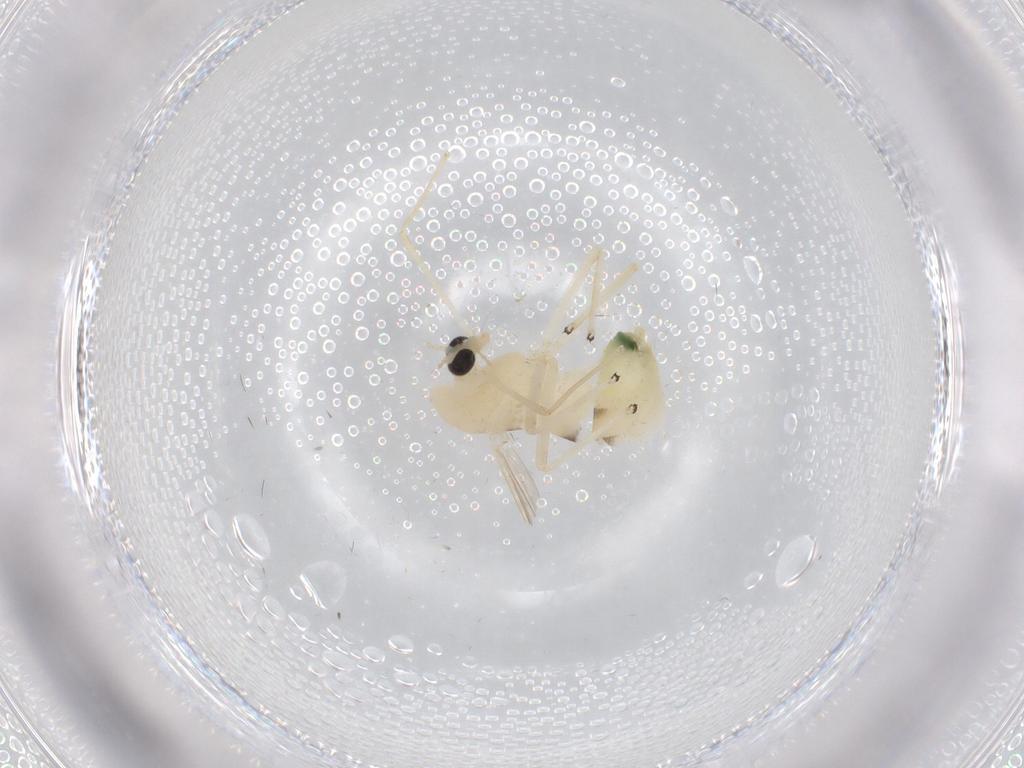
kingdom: Animalia
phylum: Arthropoda
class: Insecta
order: Diptera
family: Chironomidae
